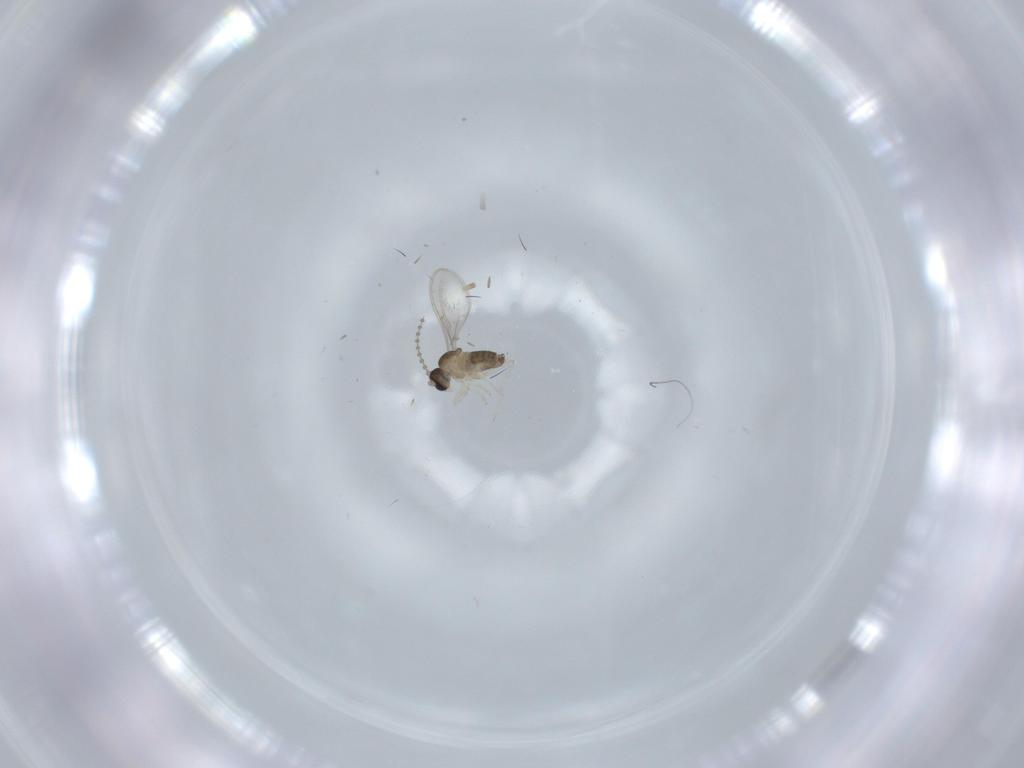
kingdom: Animalia
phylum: Arthropoda
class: Insecta
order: Diptera
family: Cecidomyiidae
